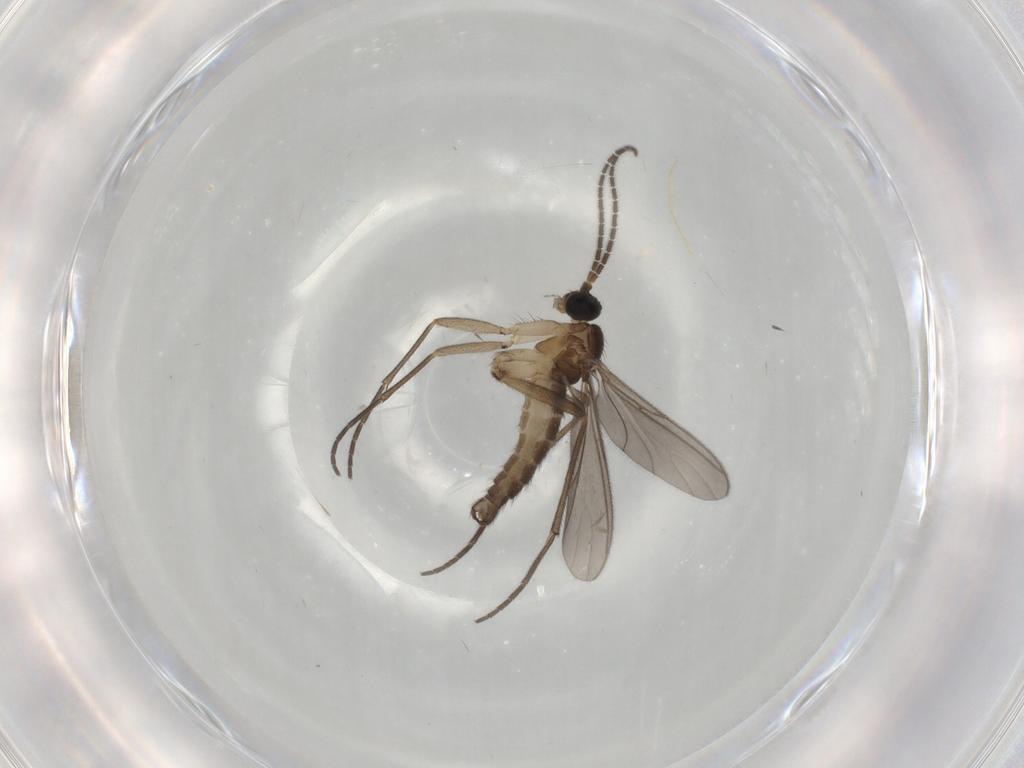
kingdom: Animalia
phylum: Arthropoda
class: Insecta
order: Diptera
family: Sciaridae
